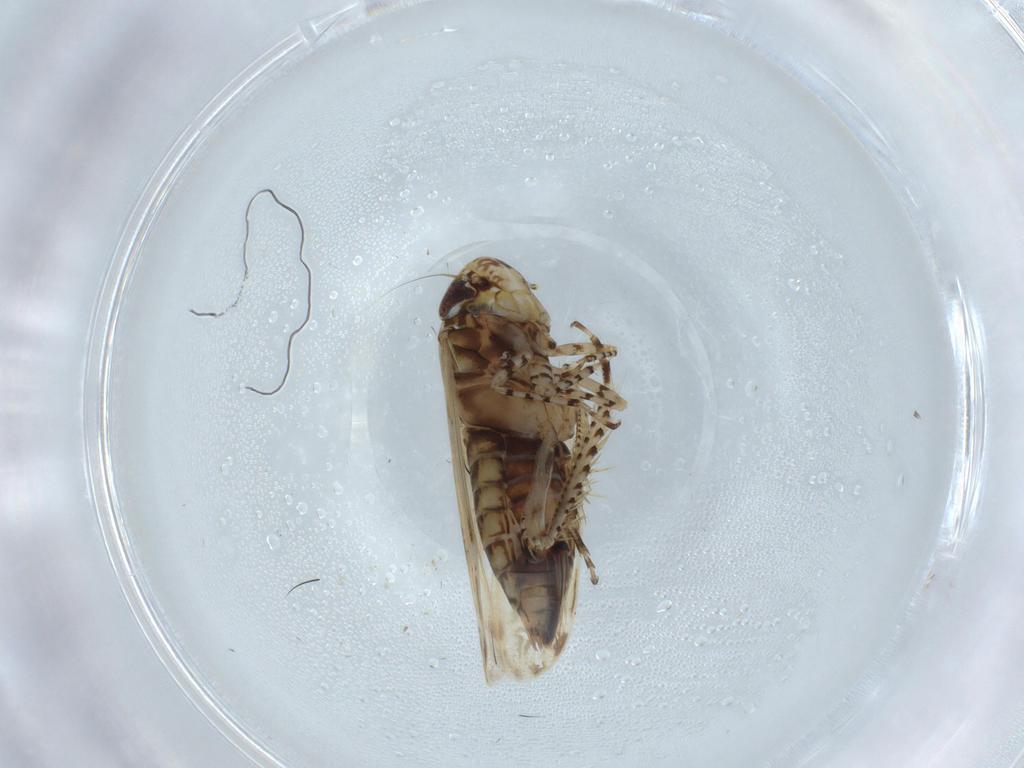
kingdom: Animalia
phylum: Arthropoda
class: Insecta
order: Hemiptera
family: Cicadellidae
